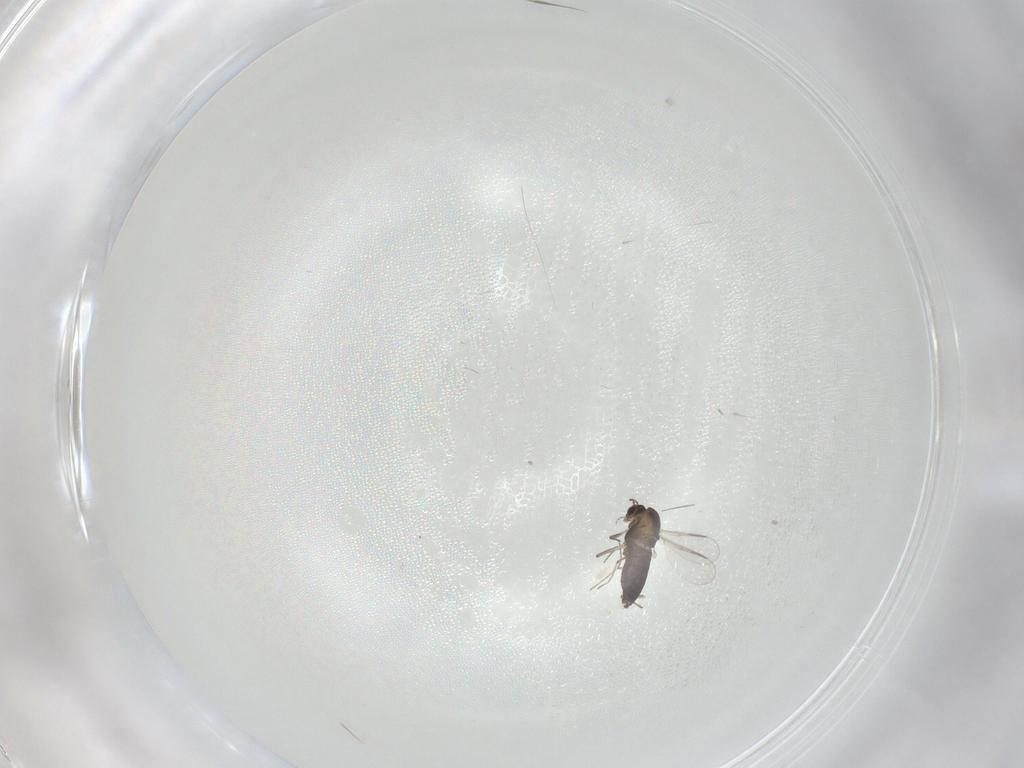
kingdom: Animalia
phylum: Arthropoda
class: Insecta
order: Diptera
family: Chironomidae
